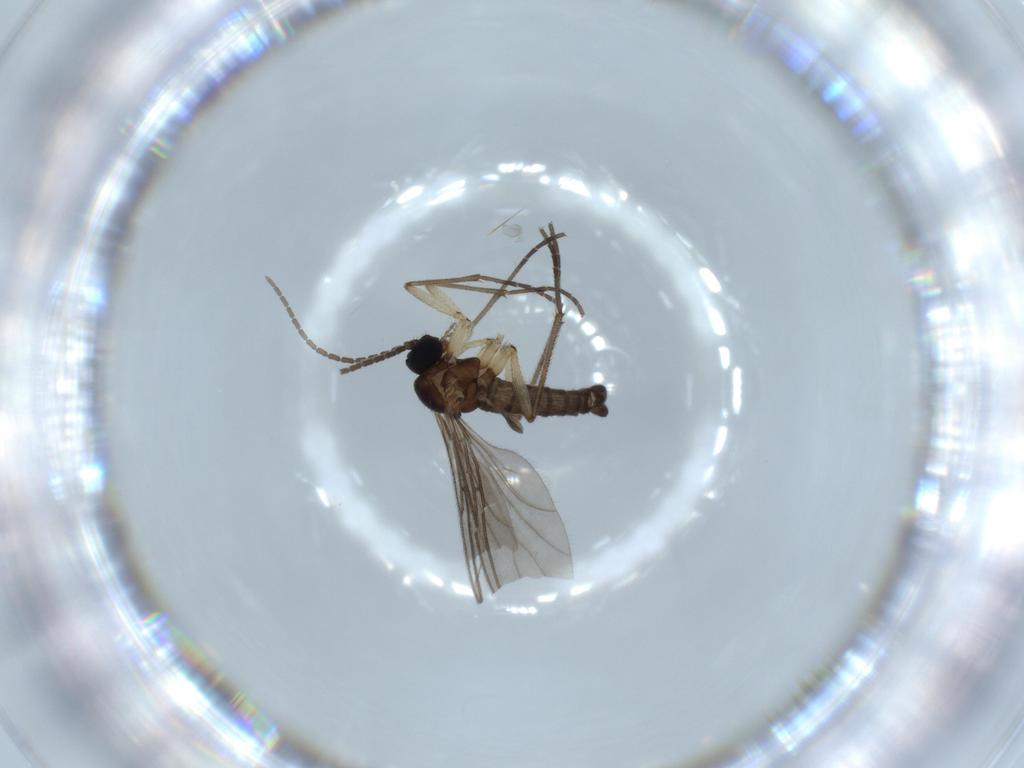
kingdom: Animalia
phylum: Arthropoda
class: Insecta
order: Diptera
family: Sciaridae
